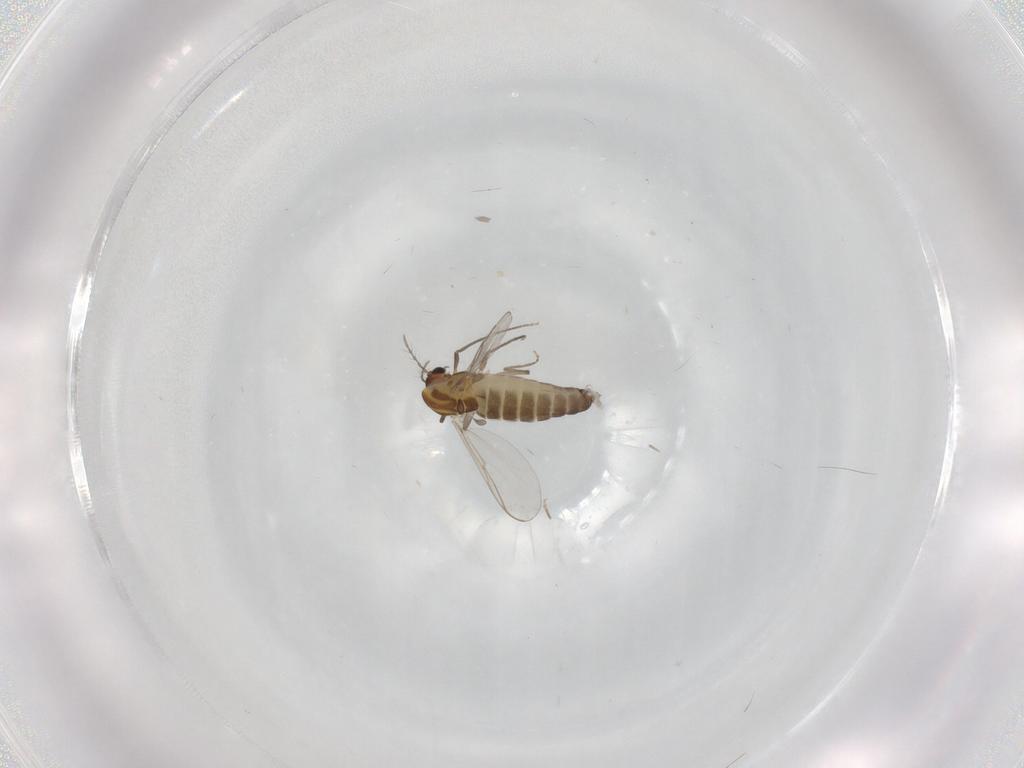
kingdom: Animalia
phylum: Arthropoda
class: Insecta
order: Diptera
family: Chironomidae
